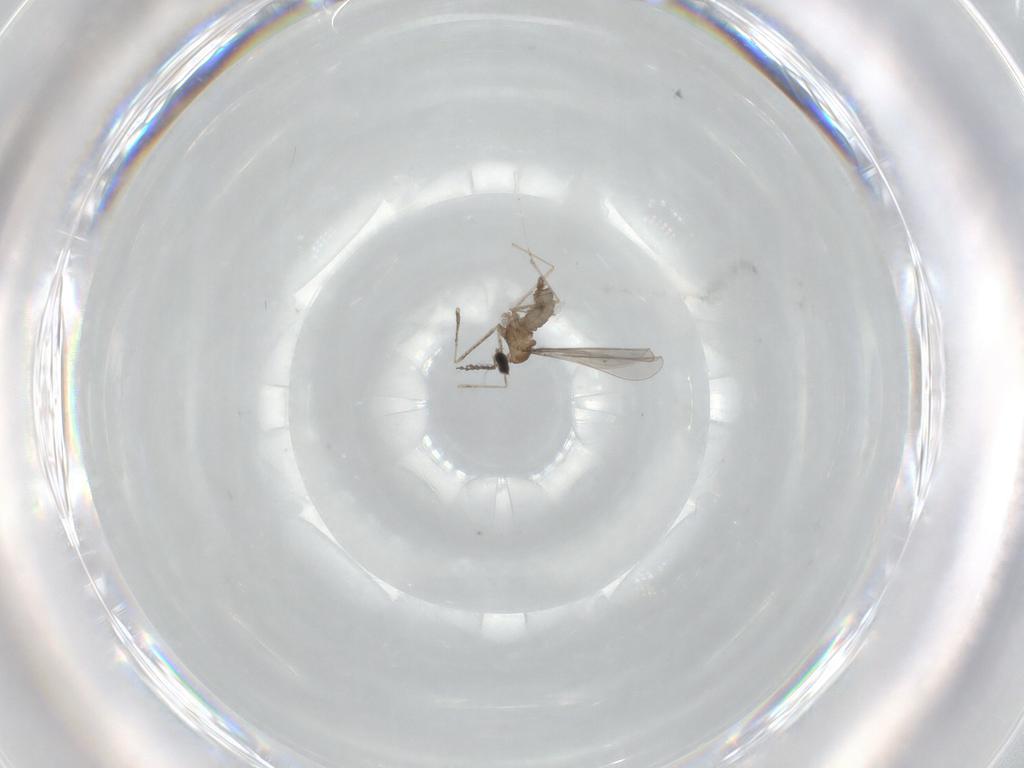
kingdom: Animalia
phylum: Arthropoda
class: Insecta
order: Diptera
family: Cecidomyiidae
